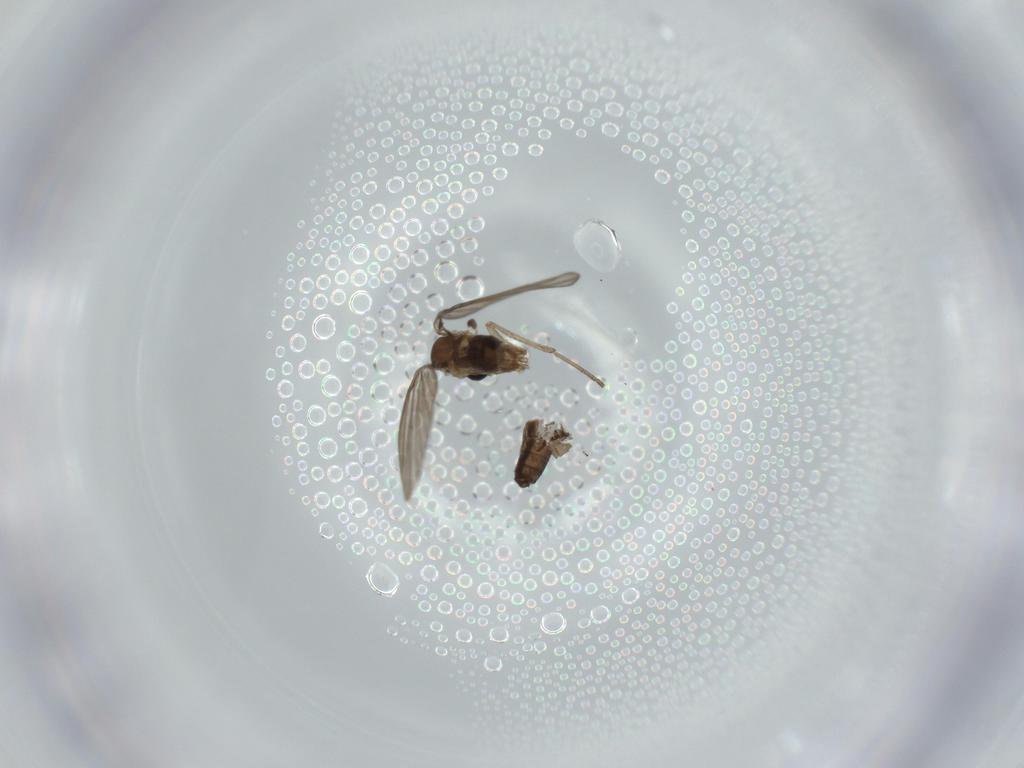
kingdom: Animalia
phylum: Arthropoda
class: Insecta
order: Diptera
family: Psychodidae
